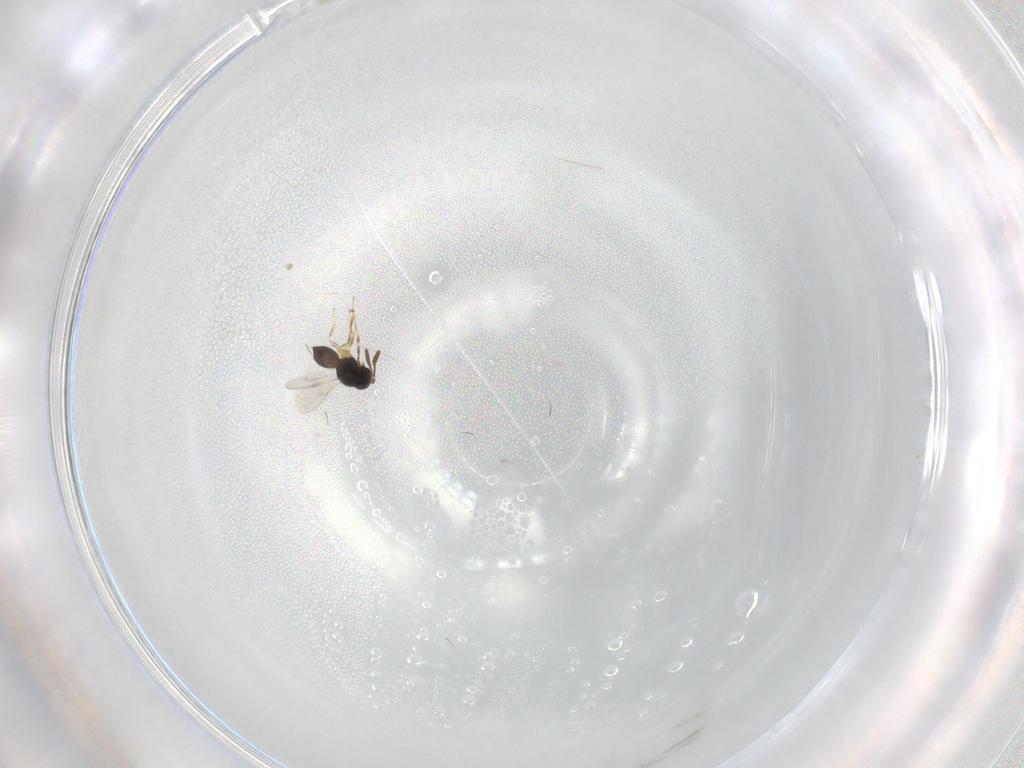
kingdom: Animalia
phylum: Arthropoda
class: Insecta
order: Hymenoptera
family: Scelionidae
